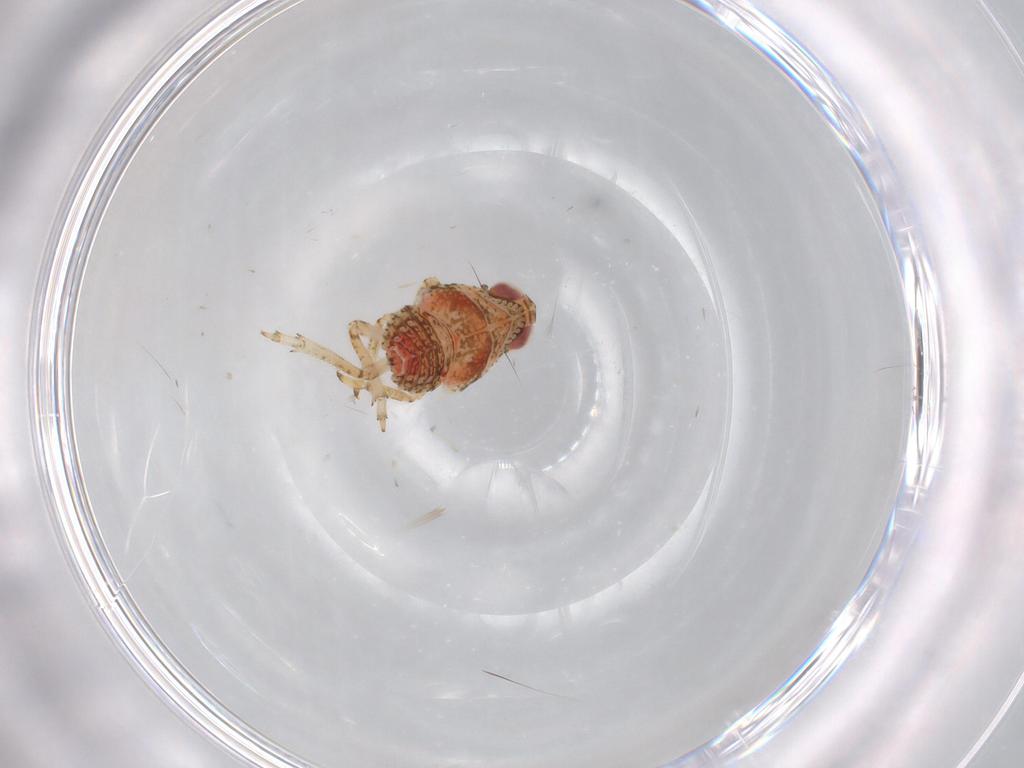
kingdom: Animalia
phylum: Arthropoda
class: Insecta
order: Hemiptera
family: Issidae
